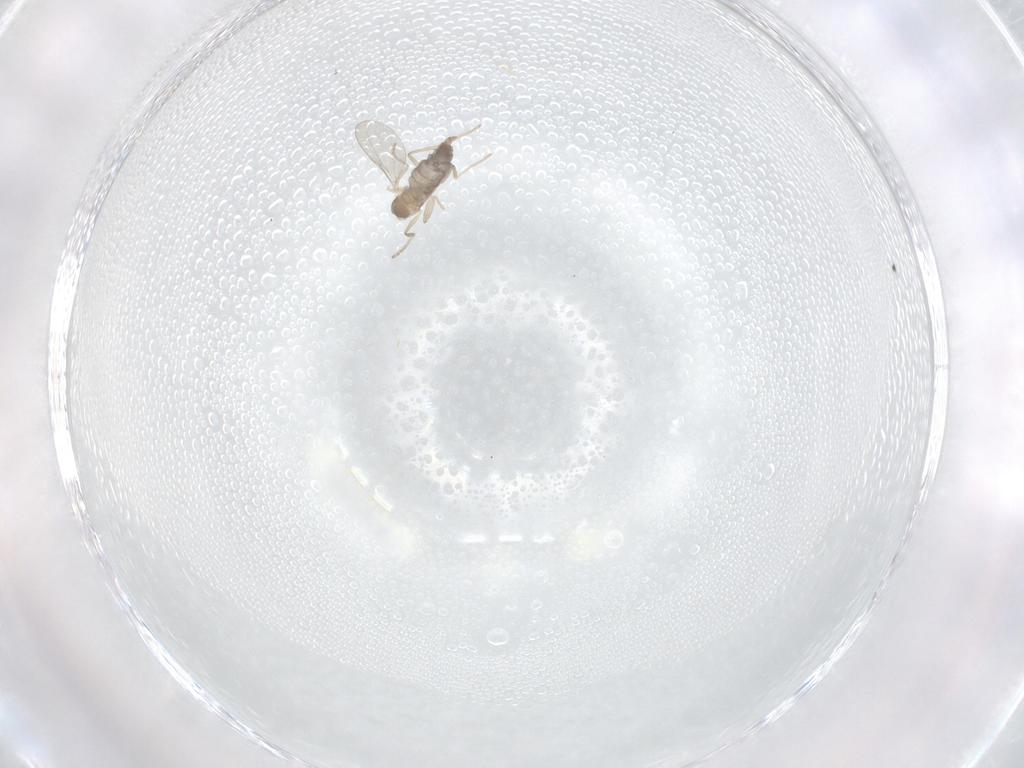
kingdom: Animalia
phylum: Arthropoda
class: Insecta
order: Diptera
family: Cecidomyiidae
